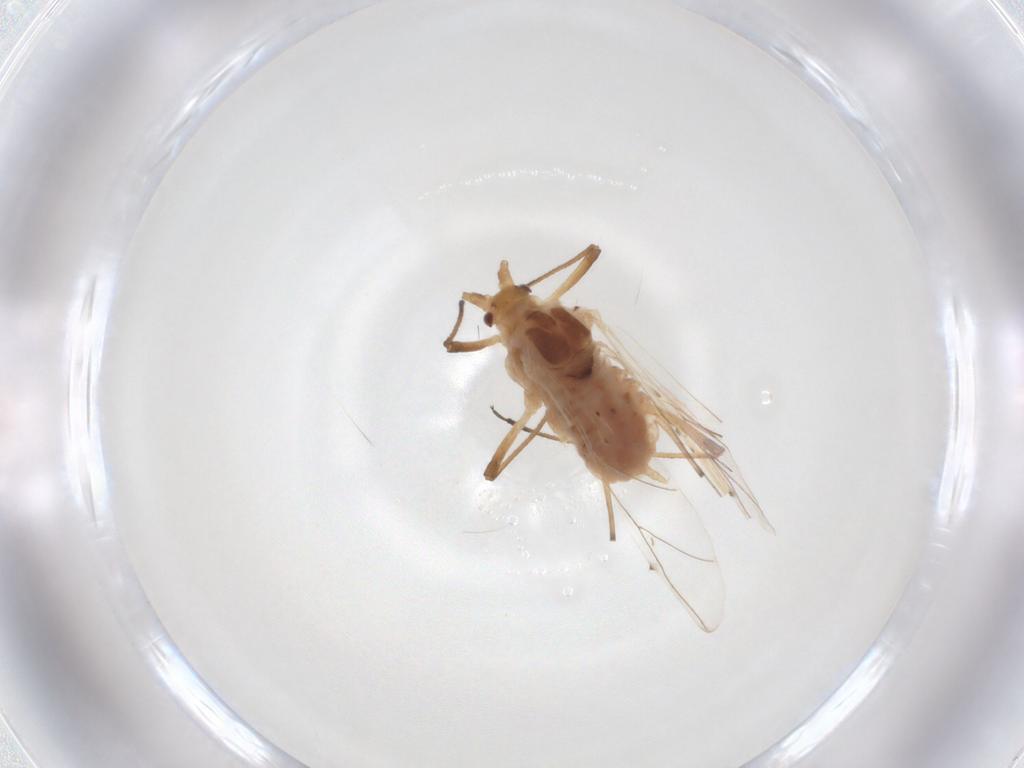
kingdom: Animalia
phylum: Arthropoda
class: Insecta
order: Hemiptera
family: Aphididae
